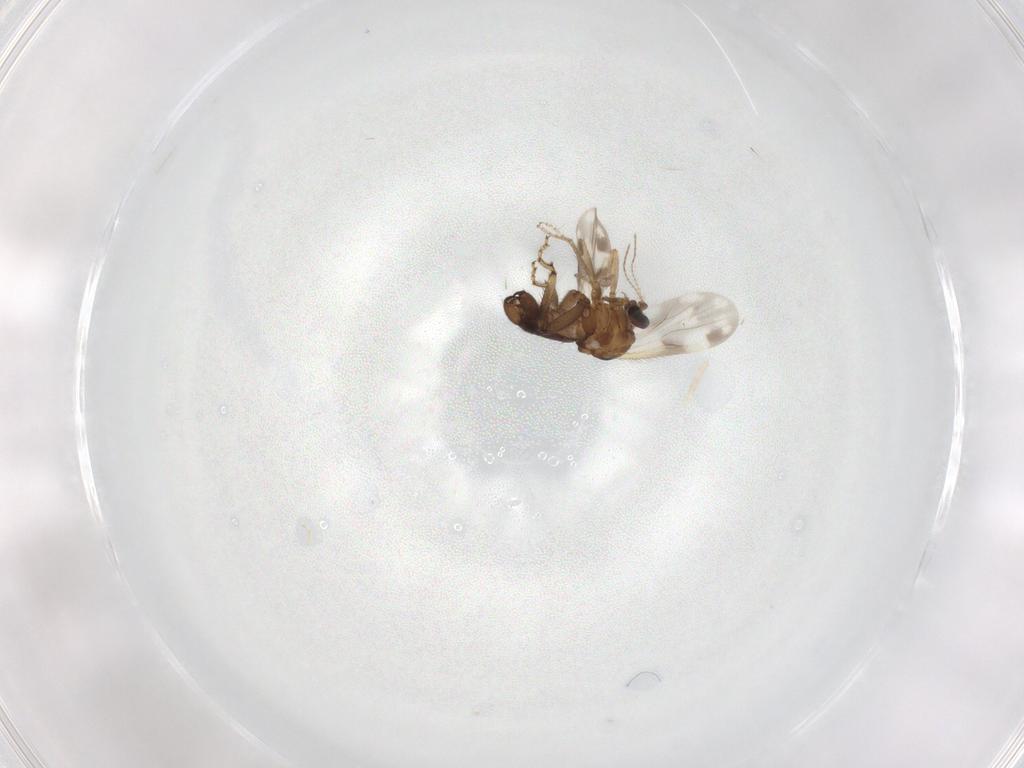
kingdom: Animalia
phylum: Arthropoda
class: Insecta
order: Diptera
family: Ceratopogonidae
